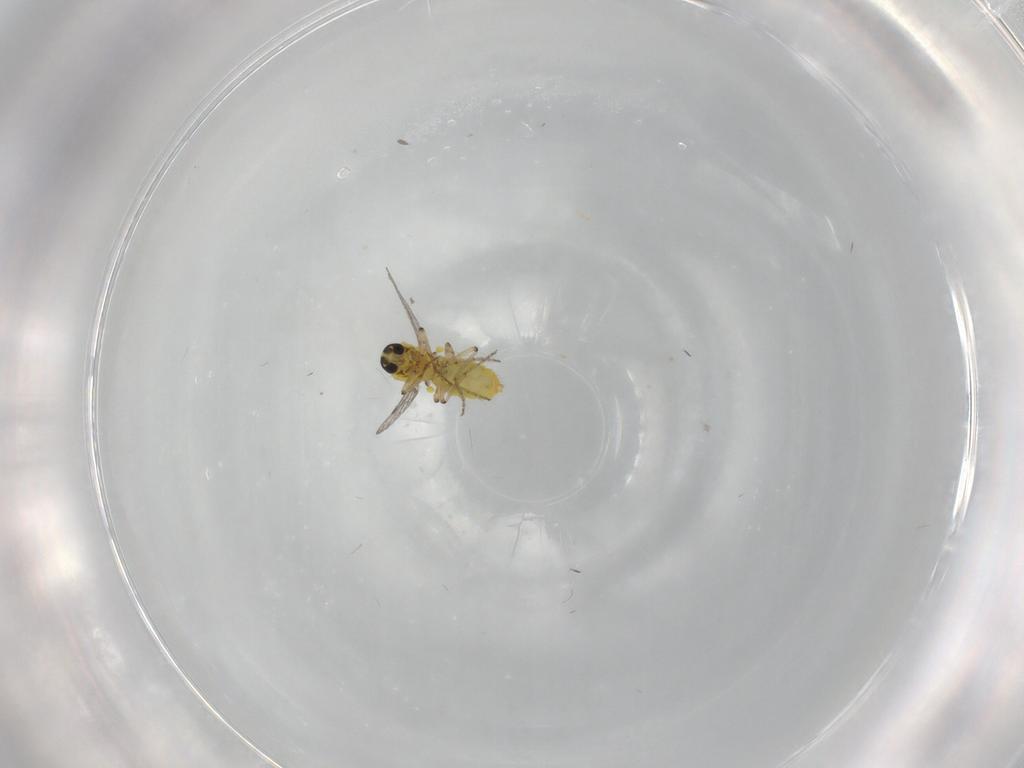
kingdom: Animalia
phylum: Arthropoda
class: Insecta
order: Diptera
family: Ceratopogonidae
